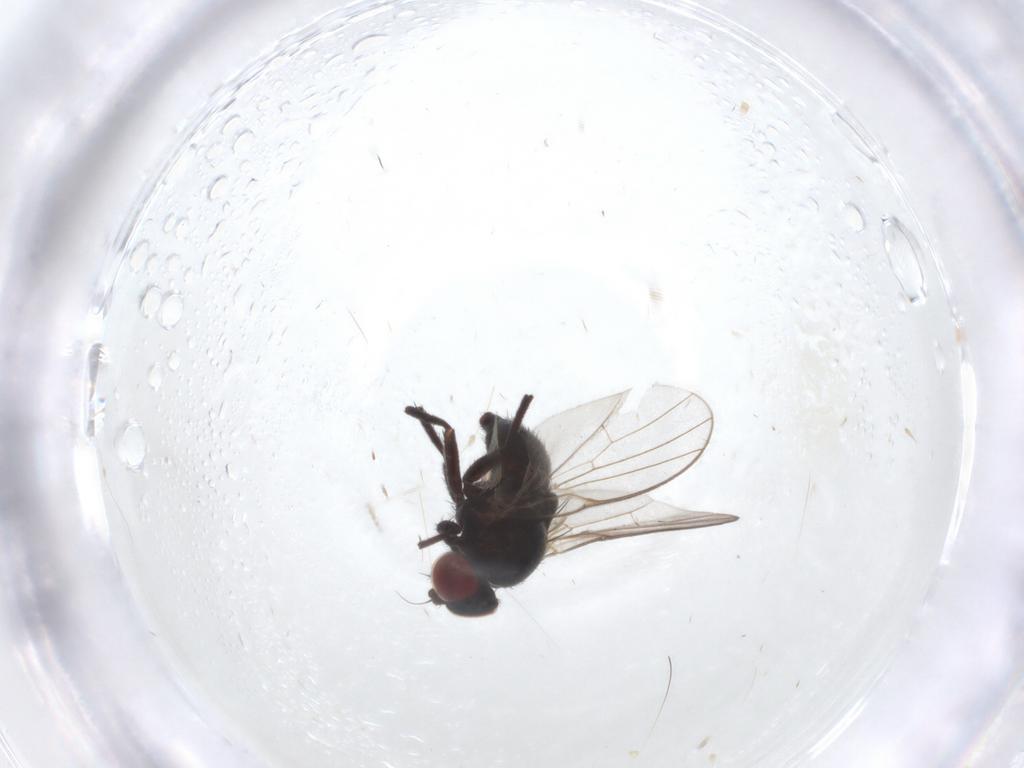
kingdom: Animalia
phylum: Arthropoda
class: Insecta
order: Diptera
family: Agromyzidae
